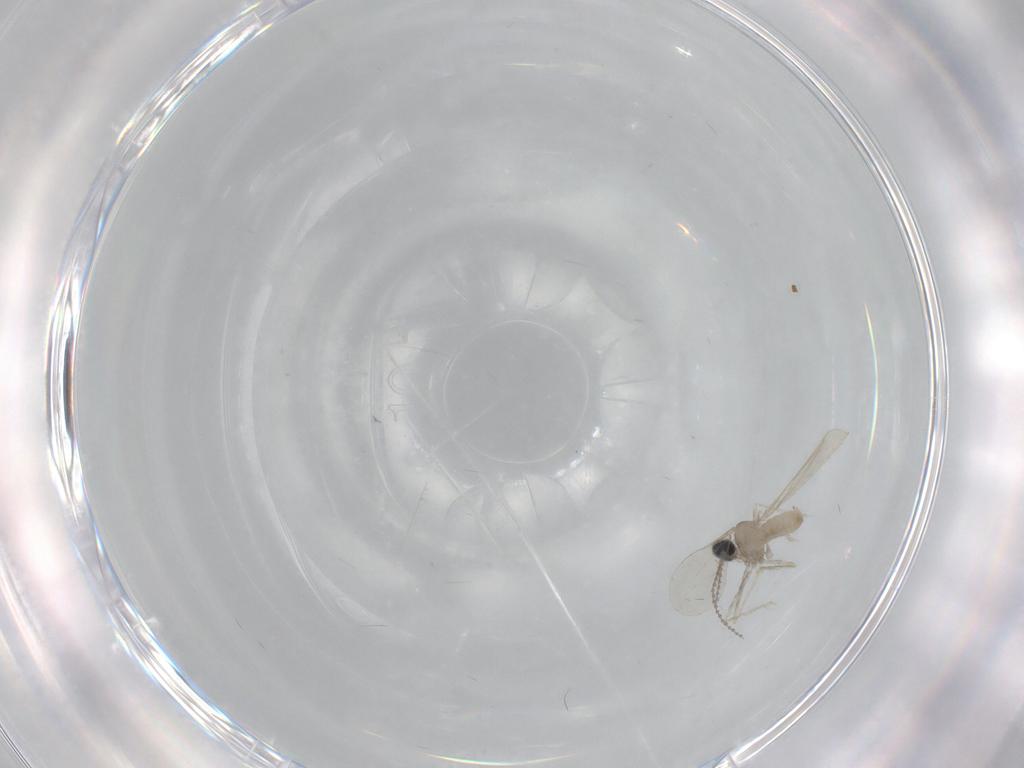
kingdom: Animalia
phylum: Arthropoda
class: Insecta
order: Diptera
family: Cecidomyiidae
